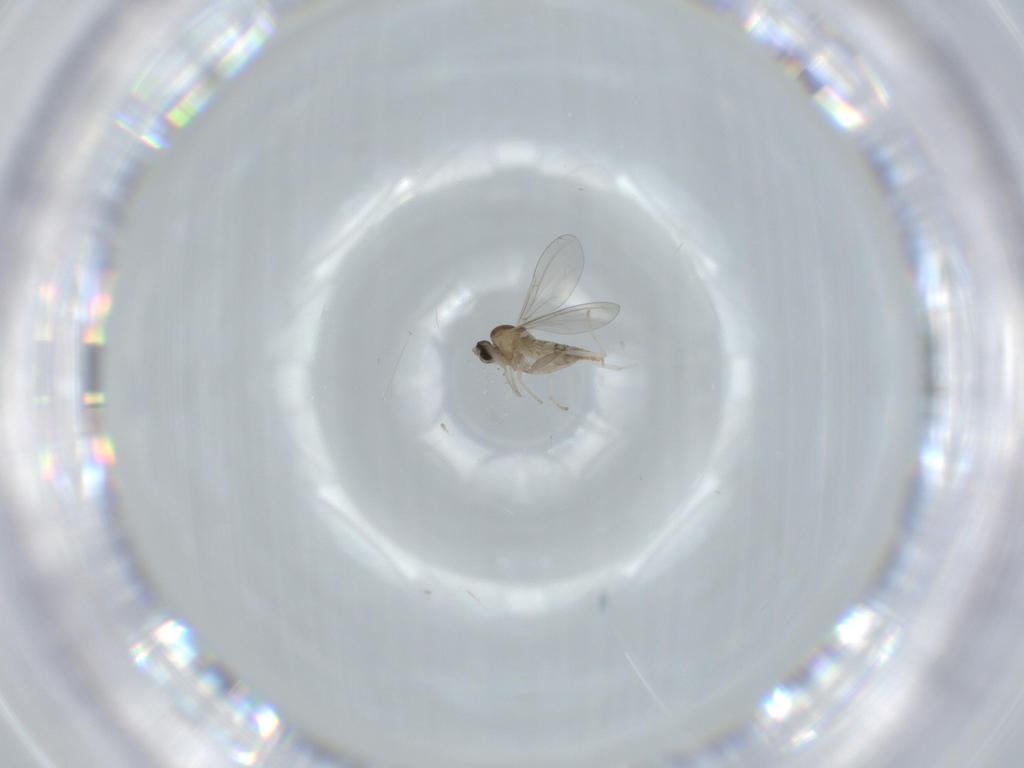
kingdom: Animalia
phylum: Arthropoda
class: Insecta
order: Diptera
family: Cecidomyiidae
